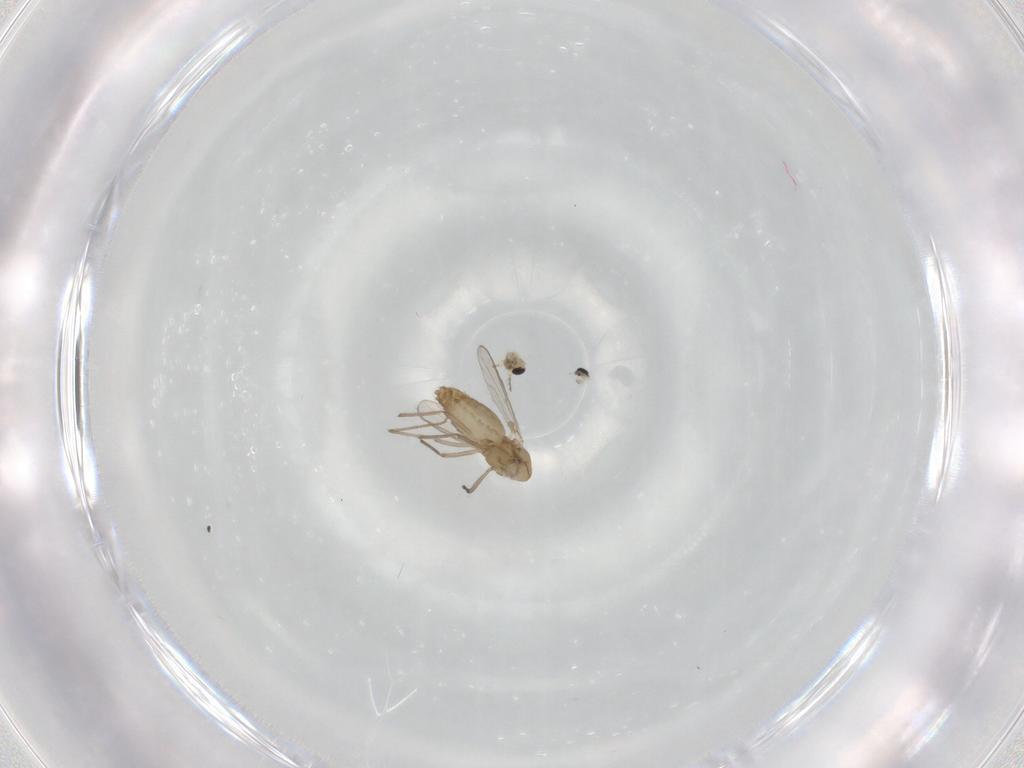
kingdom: Animalia
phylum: Arthropoda
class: Insecta
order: Diptera
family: Chironomidae
